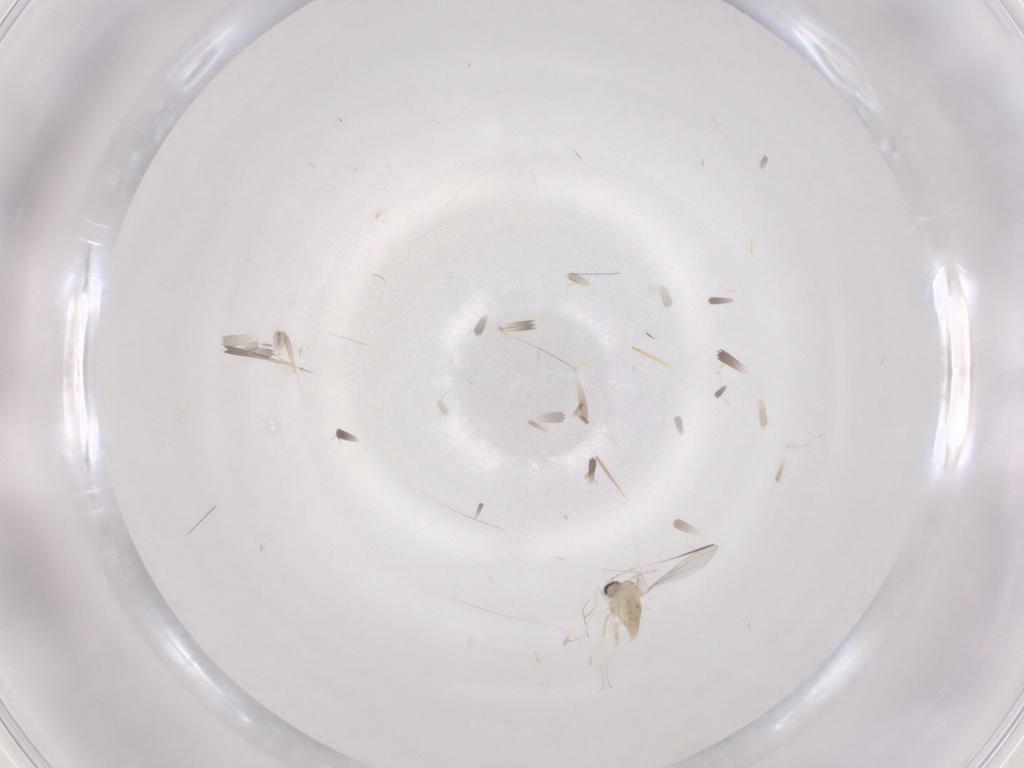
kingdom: Animalia
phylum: Arthropoda
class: Insecta
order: Diptera
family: Cecidomyiidae
